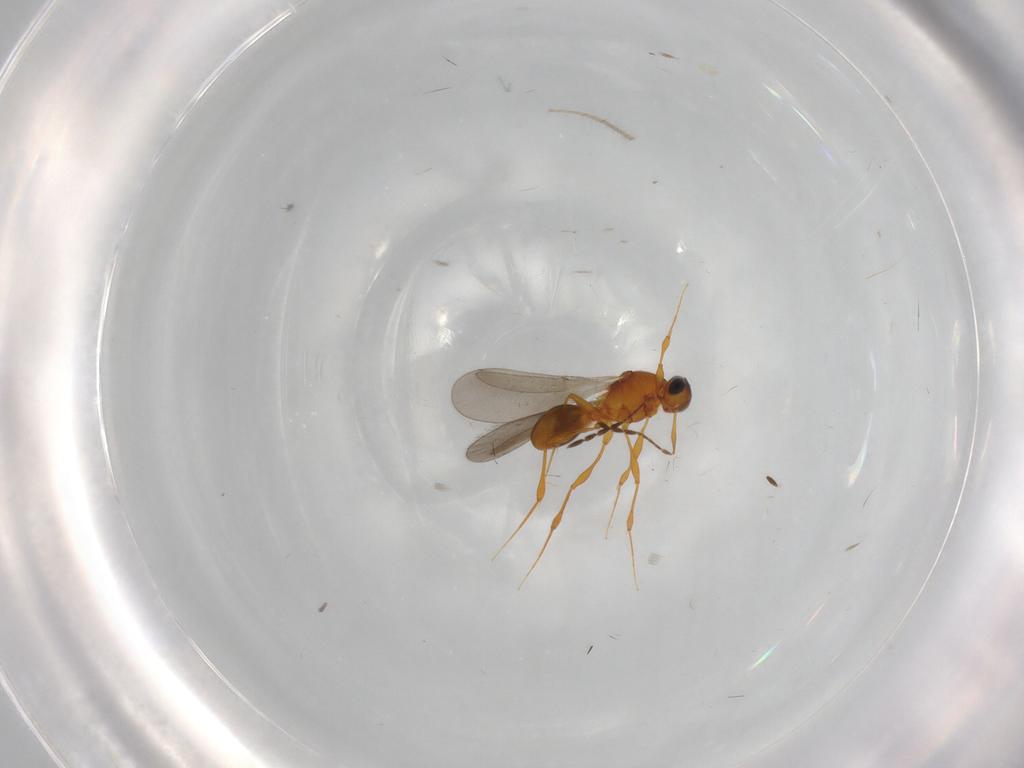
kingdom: Animalia
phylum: Arthropoda
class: Insecta
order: Hymenoptera
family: Platygastridae
